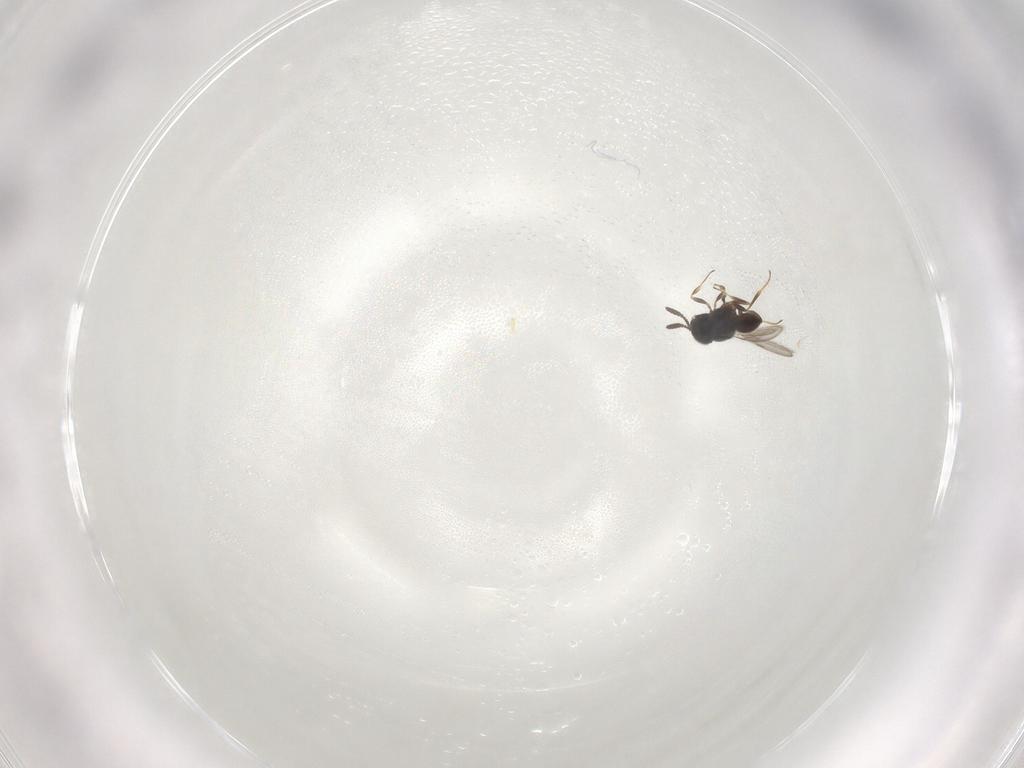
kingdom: Animalia
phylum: Arthropoda
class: Insecta
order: Hymenoptera
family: Scelionidae
